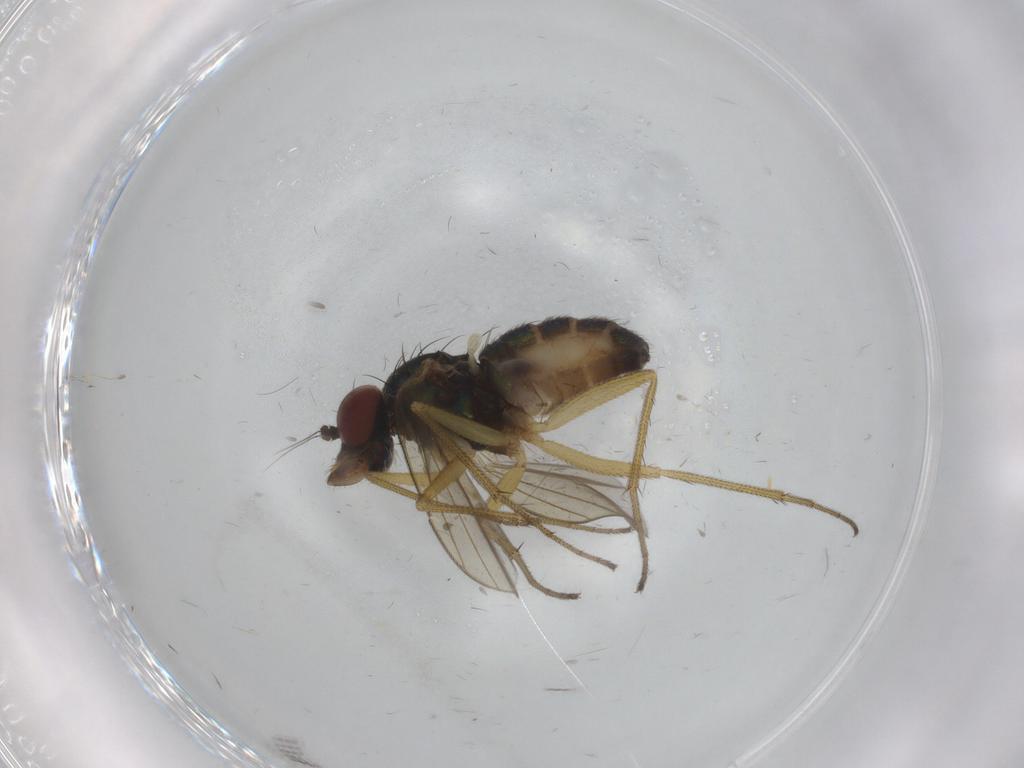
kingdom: Animalia
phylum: Arthropoda
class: Insecta
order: Diptera
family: Dolichopodidae
